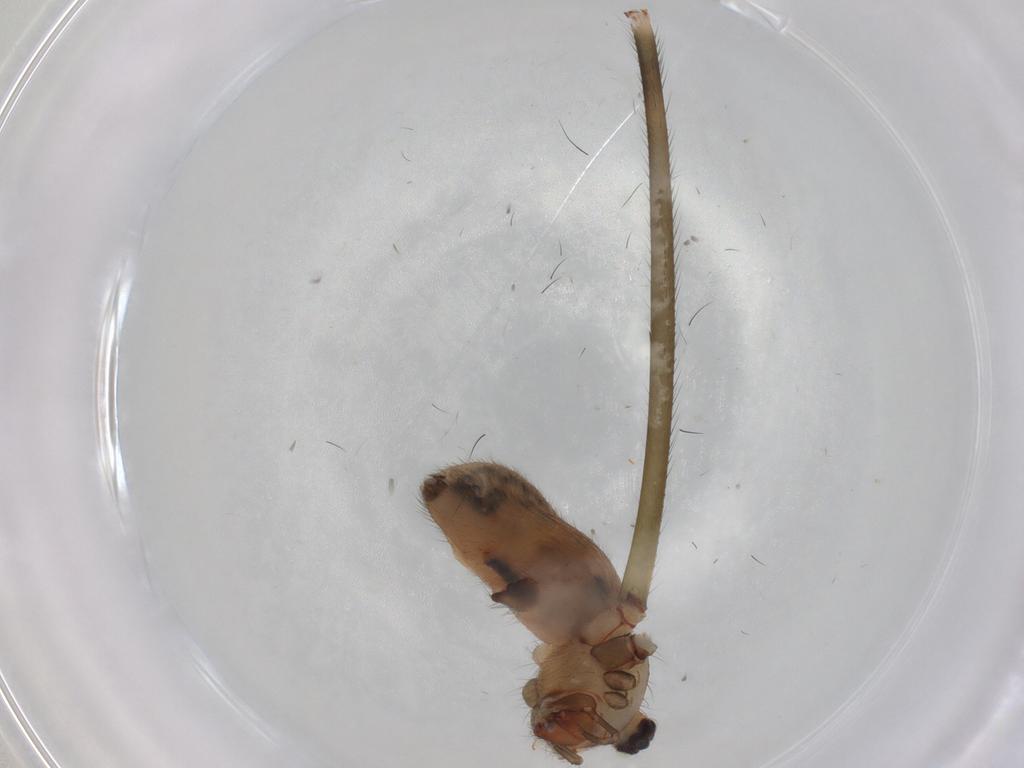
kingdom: Animalia
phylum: Arthropoda
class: Arachnida
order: Araneae
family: Pholcidae
